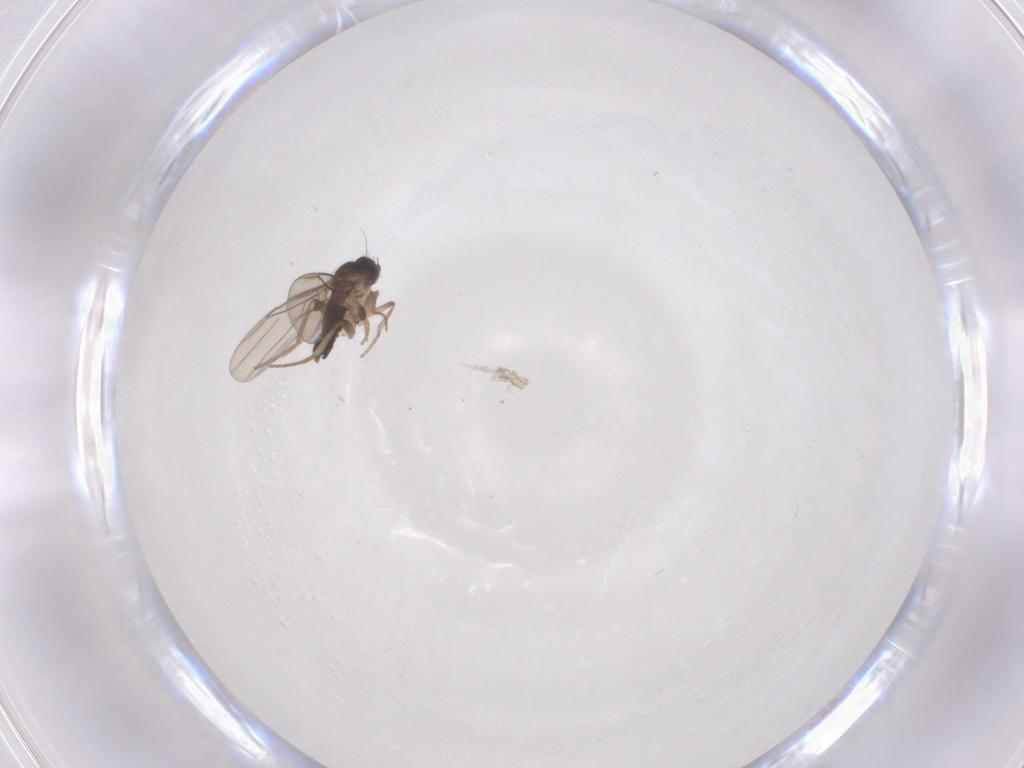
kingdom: Animalia
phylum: Arthropoda
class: Insecta
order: Diptera
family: Phoridae
